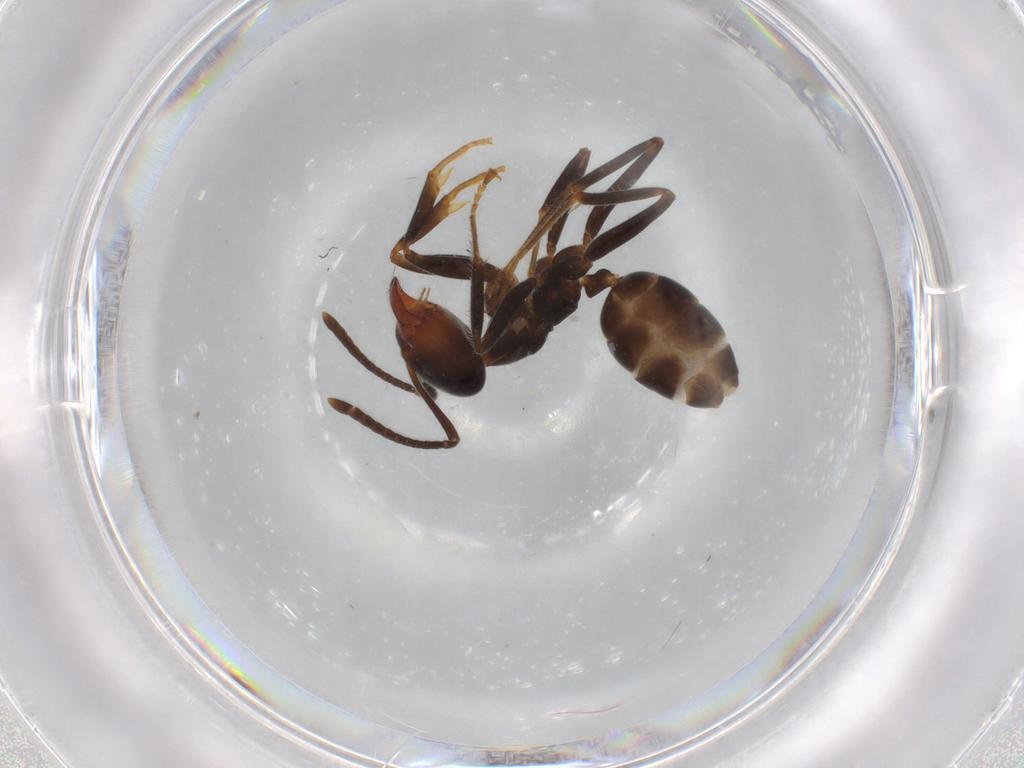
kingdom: Animalia
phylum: Arthropoda
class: Insecta
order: Hymenoptera
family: Formicidae
